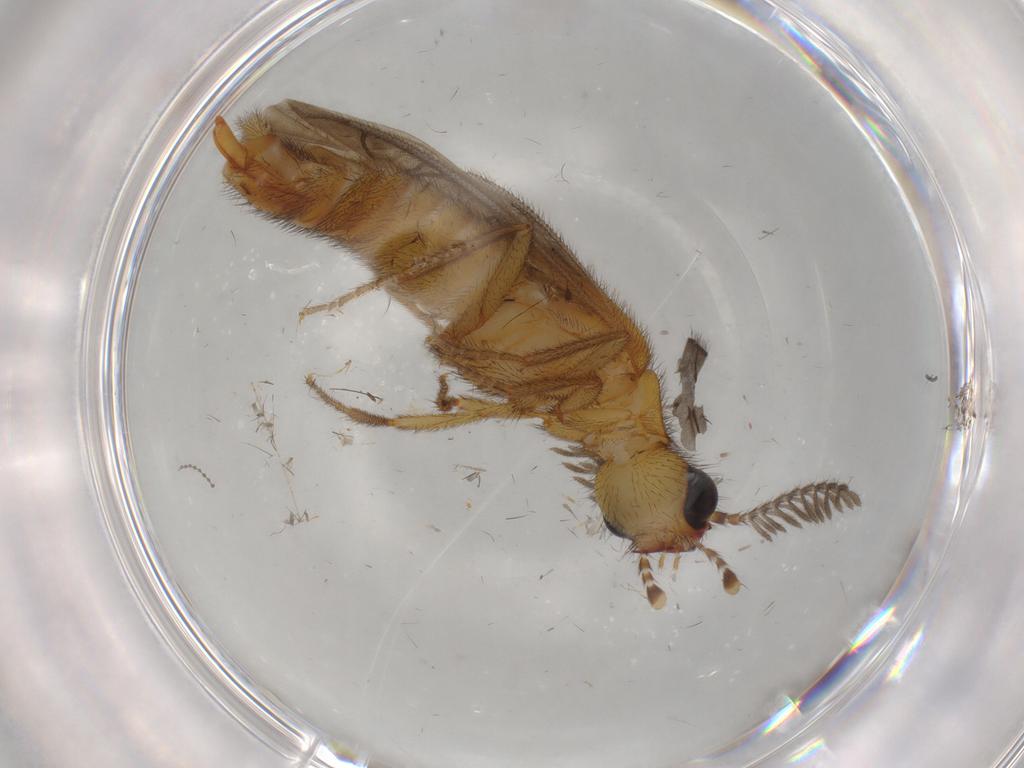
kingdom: Animalia
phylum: Arthropoda
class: Insecta
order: Coleoptera
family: Phengodidae
